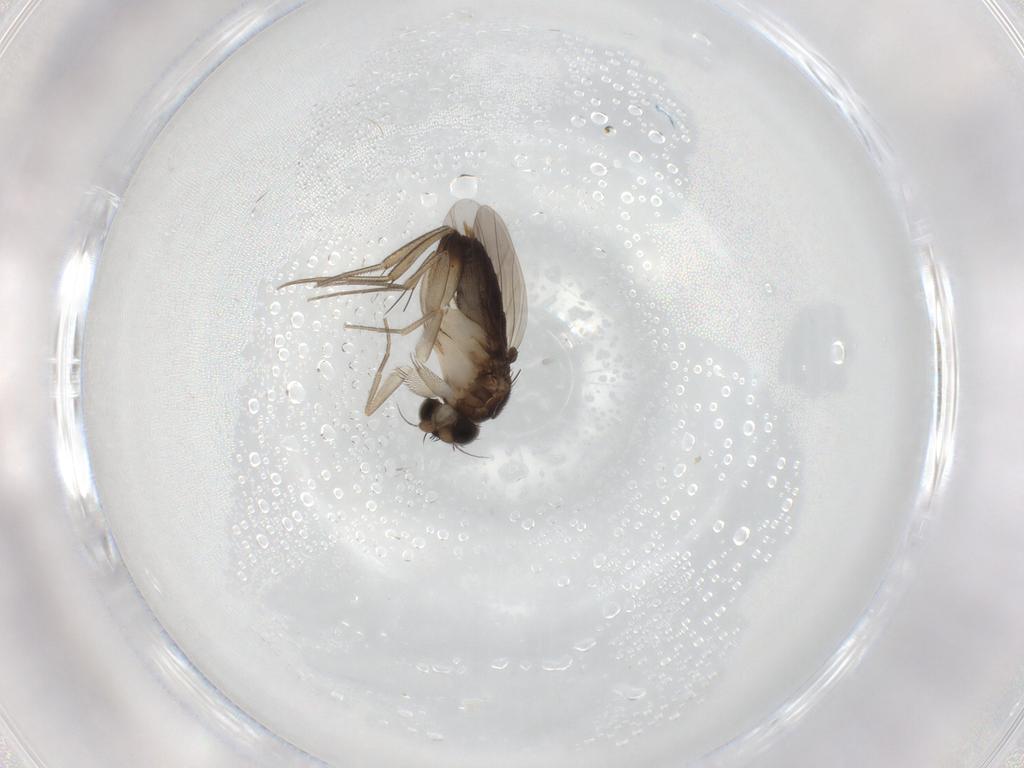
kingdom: Animalia
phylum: Arthropoda
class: Insecta
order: Diptera
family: Phoridae
